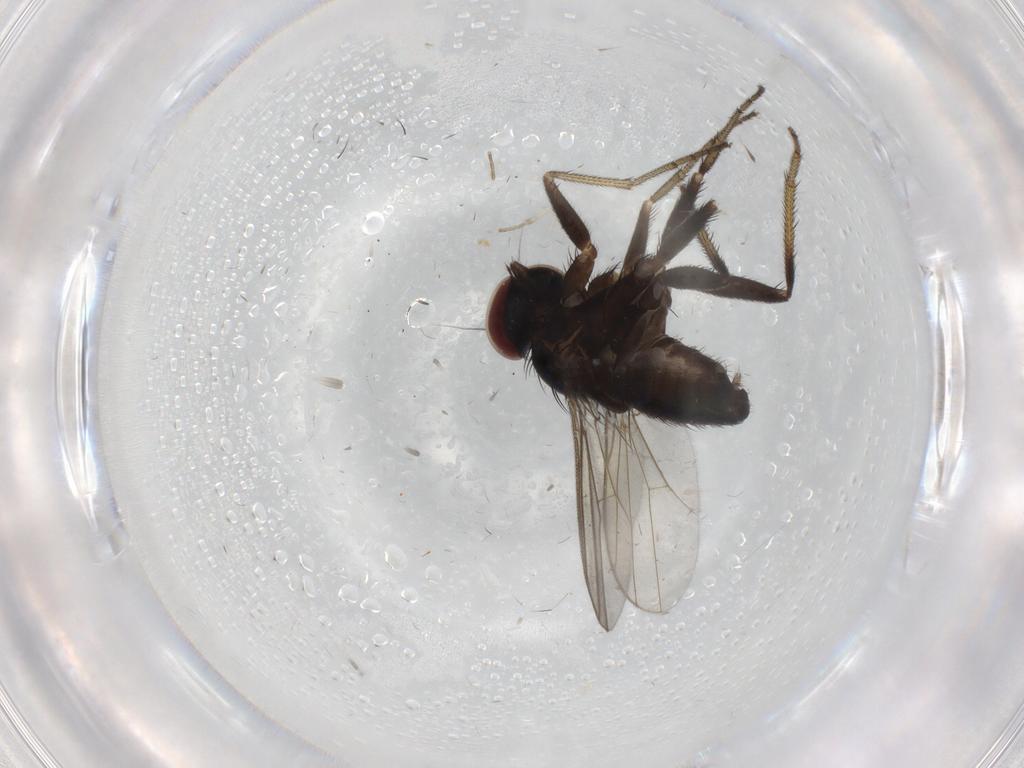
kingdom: Animalia
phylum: Arthropoda
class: Insecta
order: Diptera
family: Dolichopodidae
